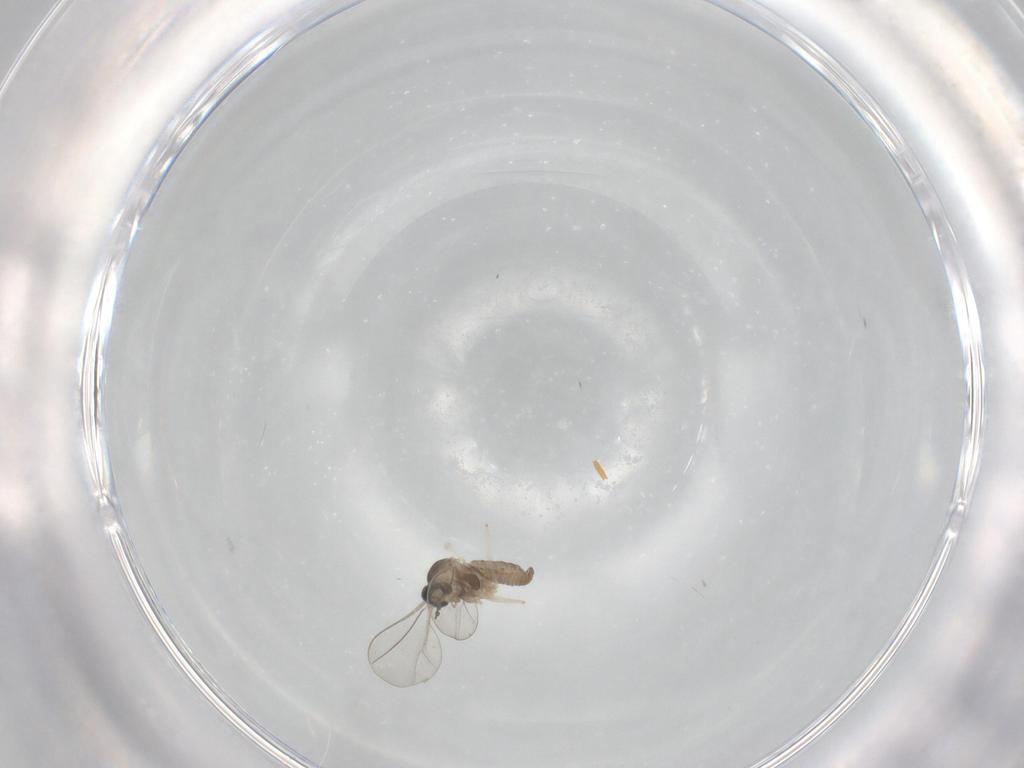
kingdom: Animalia
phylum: Arthropoda
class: Insecta
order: Diptera
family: Cecidomyiidae
